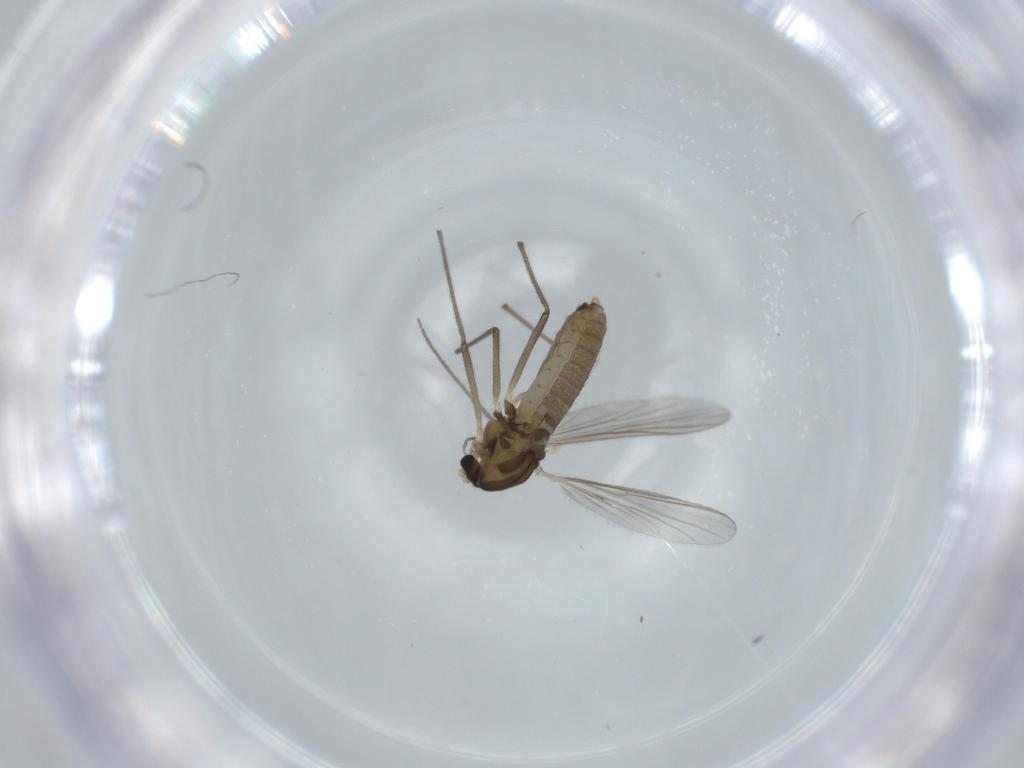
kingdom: Animalia
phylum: Arthropoda
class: Insecta
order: Diptera
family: Chironomidae
